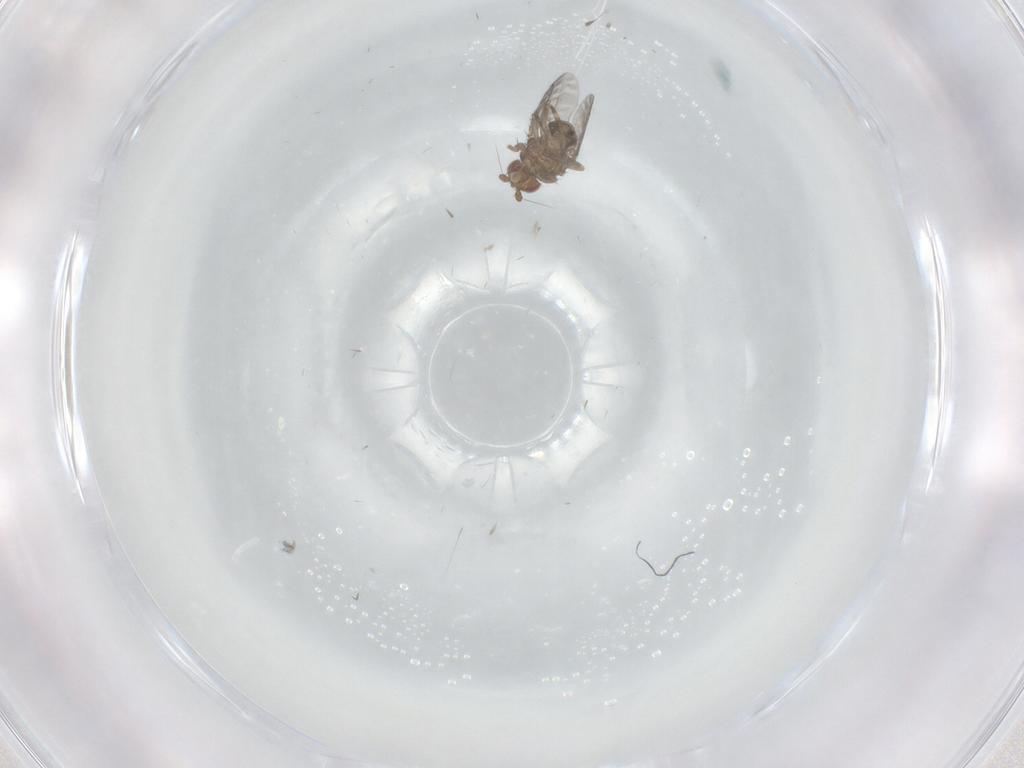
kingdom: Animalia
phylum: Arthropoda
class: Insecta
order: Diptera
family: Sphaeroceridae
